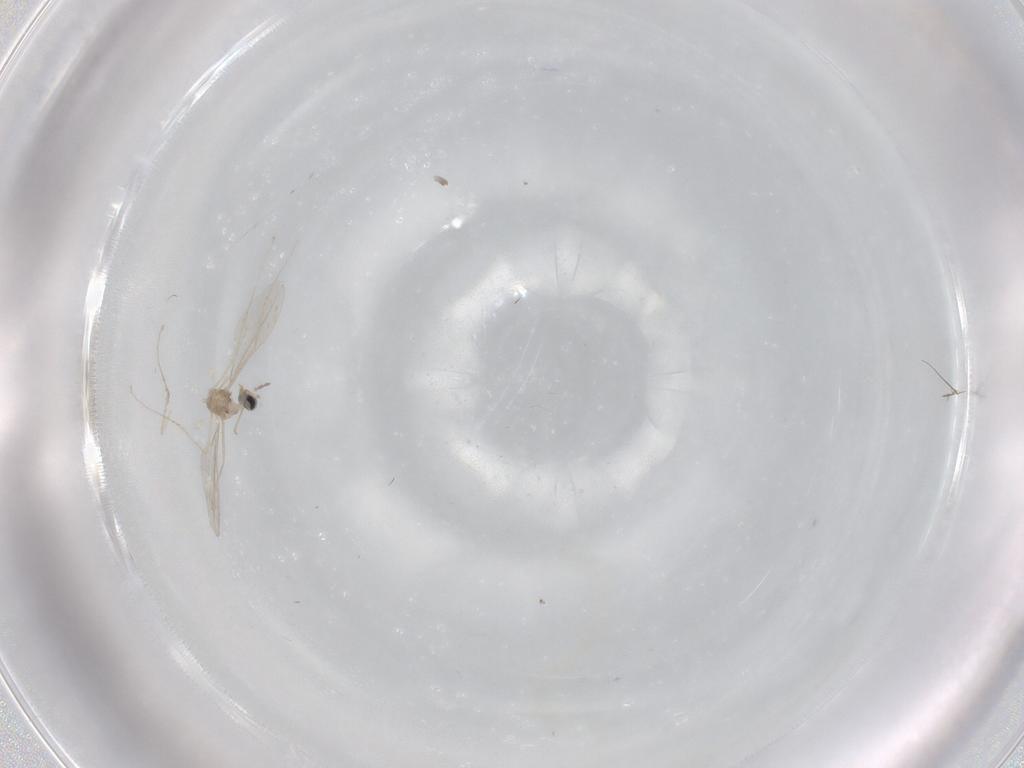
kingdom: Animalia
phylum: Arthropoda
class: Insecta
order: Diptera
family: Cecidomyiidae
